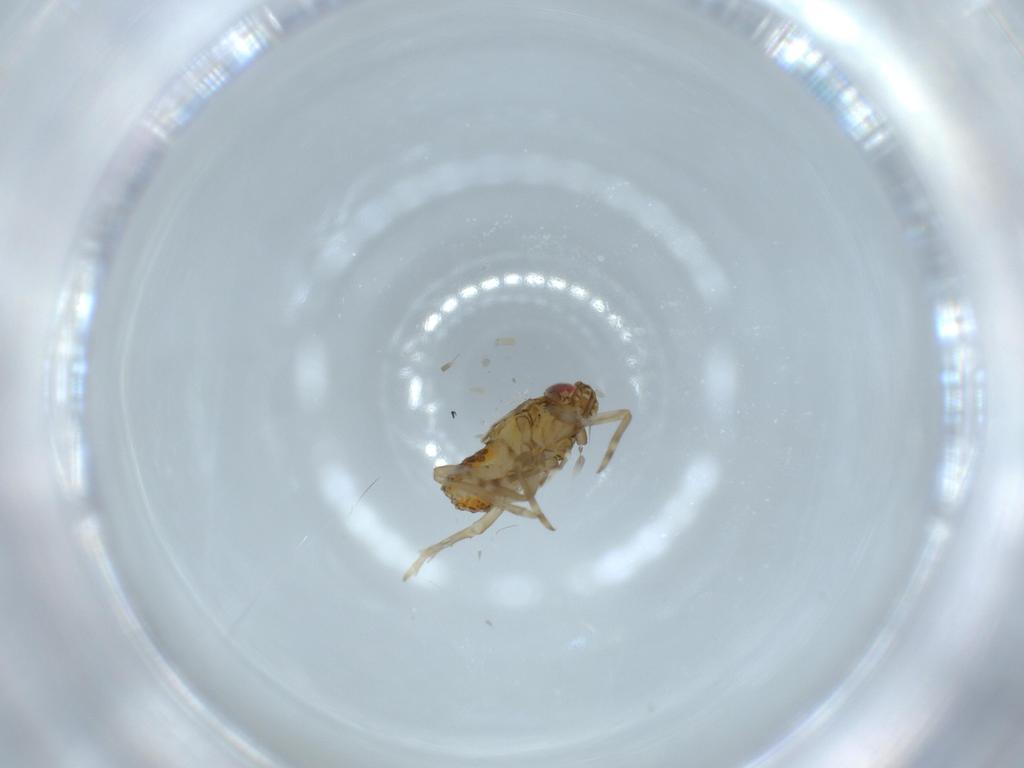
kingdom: Animalia
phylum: Arthropoda
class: Insecta
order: Hemiptera
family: Delphacidae
